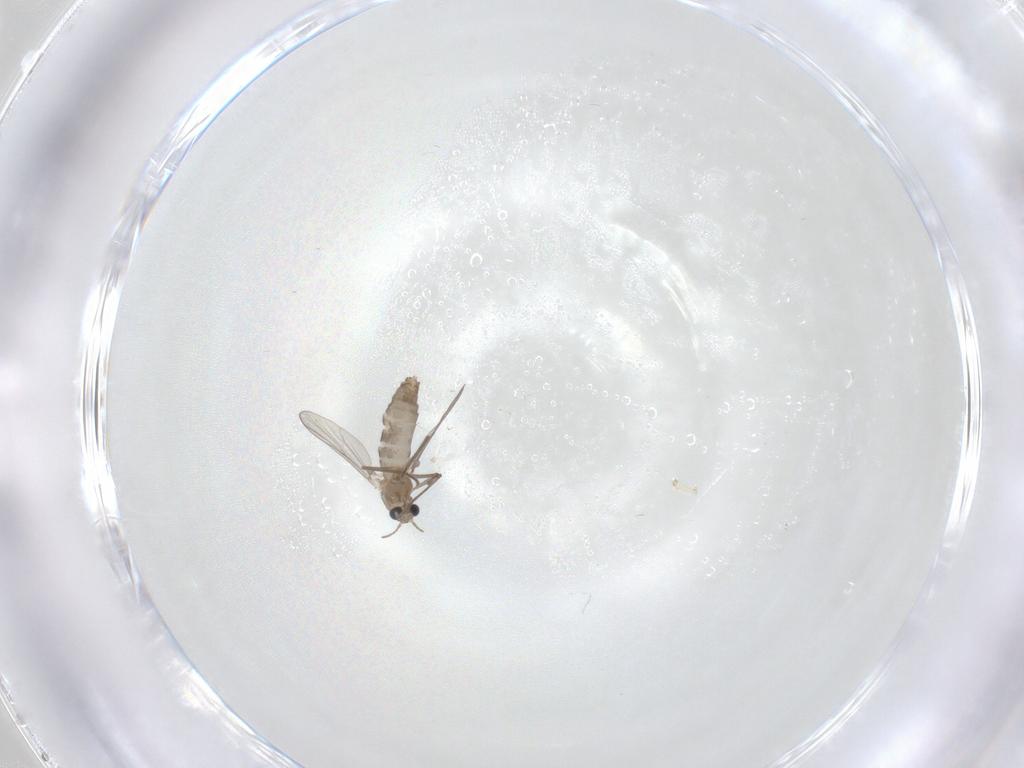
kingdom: Animalia
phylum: Arthropoda
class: Insecta
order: Diptera
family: Chironomidae
